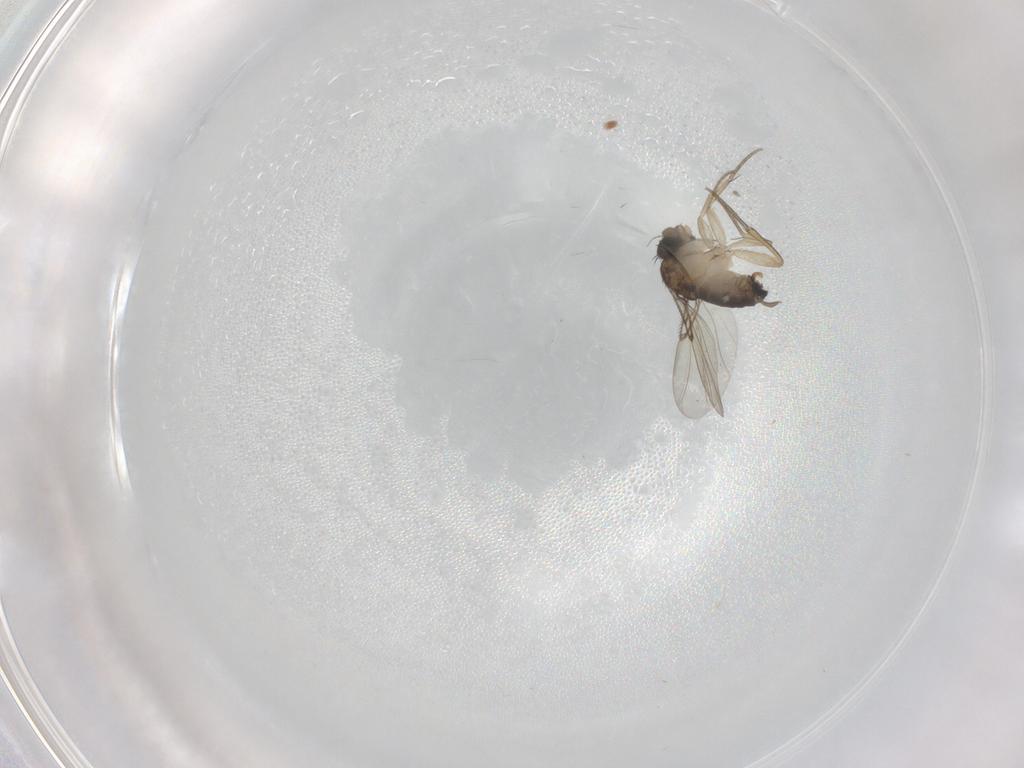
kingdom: Animalia
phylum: Arthropoda
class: Insecta
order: Diptera
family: Phoridae
